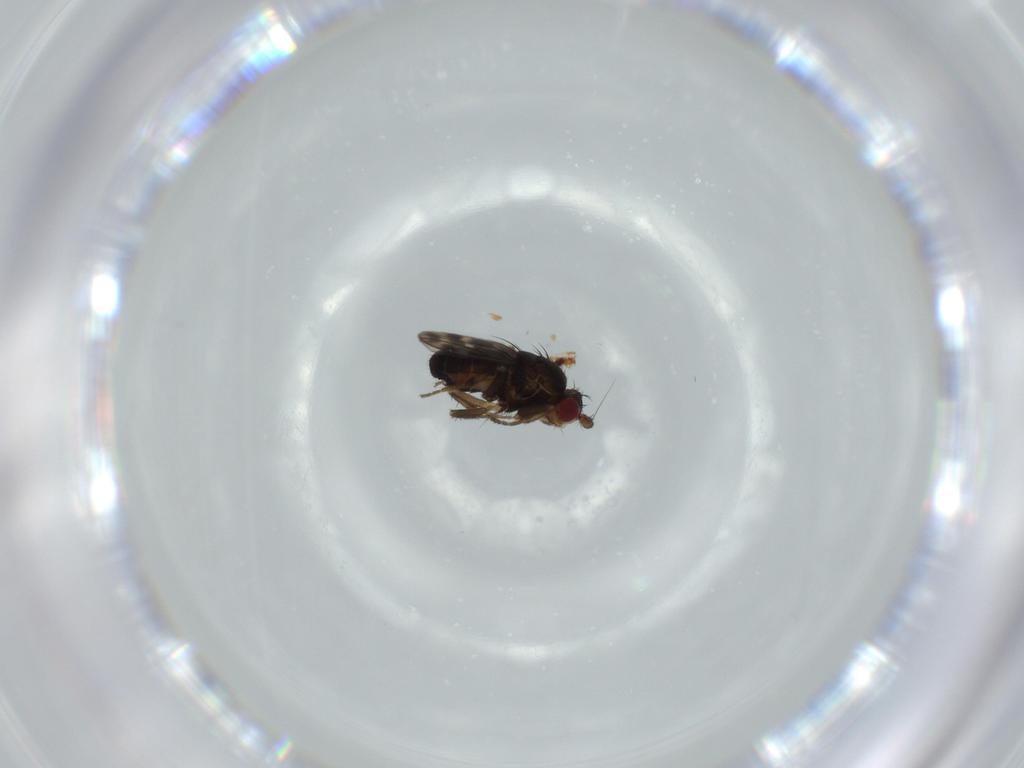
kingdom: Animalia
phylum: Arthropoda
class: Insecta
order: Diptera
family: Sphaeroceridae
